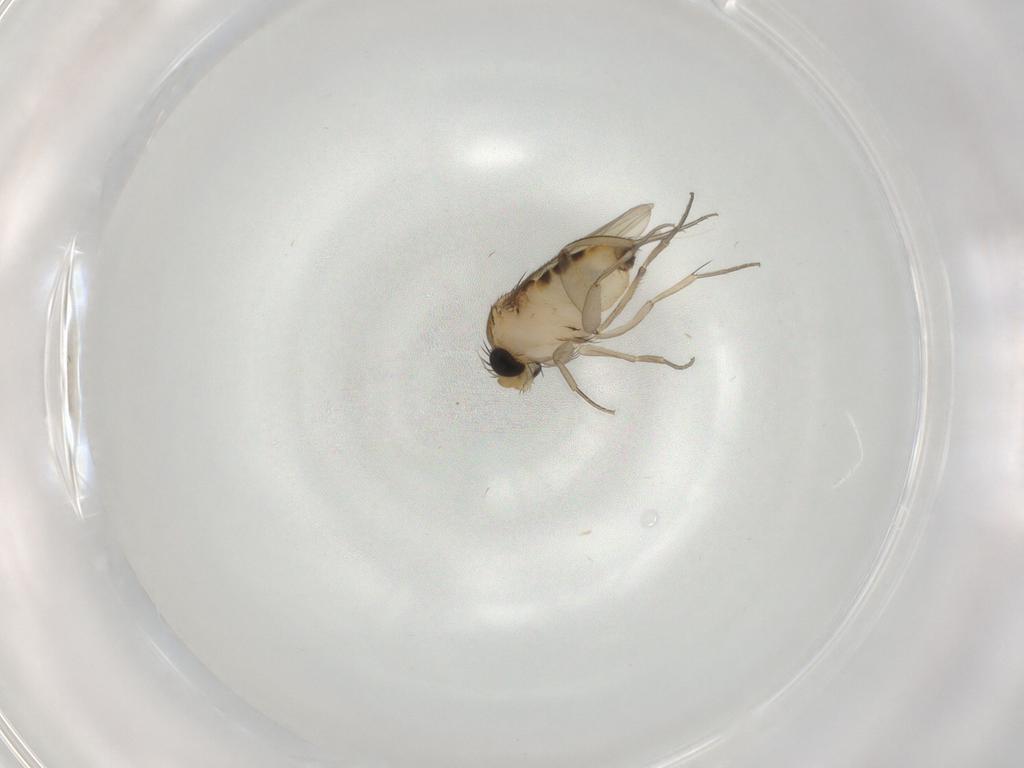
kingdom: Animalia
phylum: Arthropoda
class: Insecta
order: Diptera
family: Phoridae
